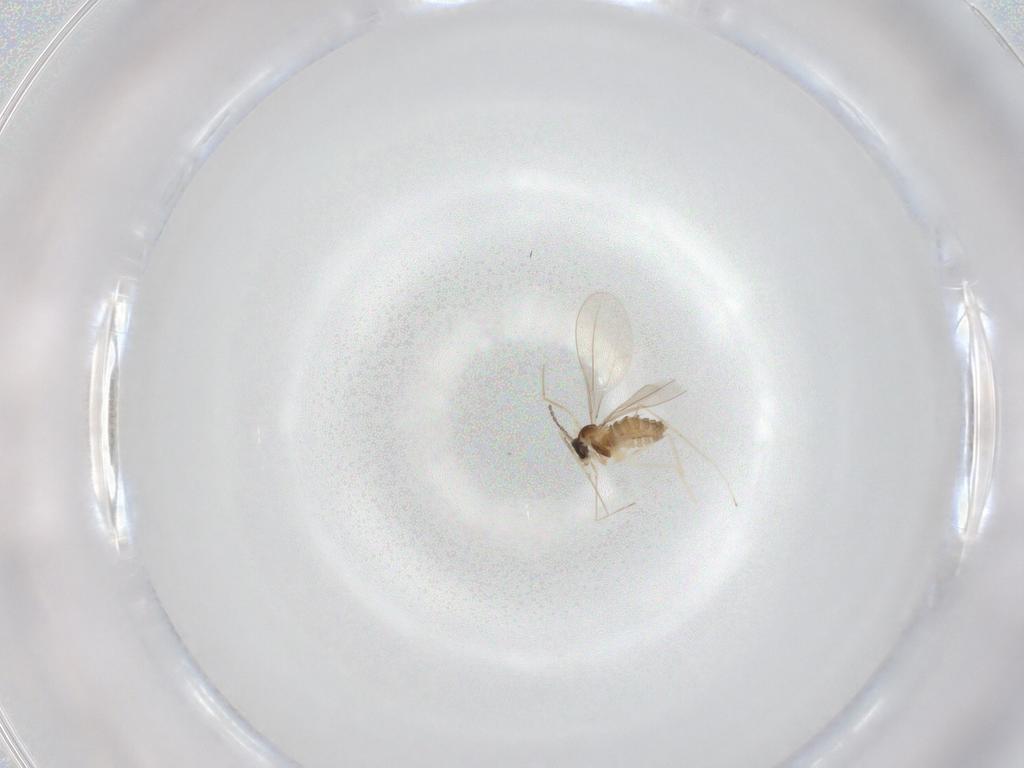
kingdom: Animalia
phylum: Arthropoda
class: Insecta
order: Diptera
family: Cecidomyiidae
